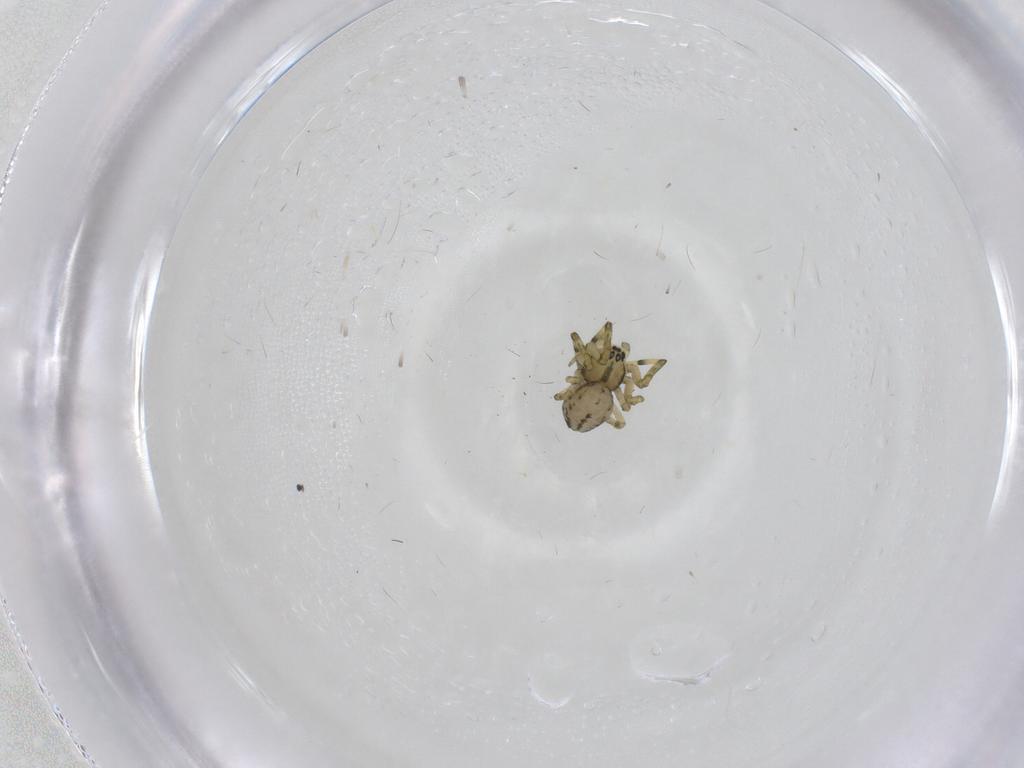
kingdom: Animalia
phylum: Arthropoda
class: Arachnida
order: Araneae
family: Linyphiidae
